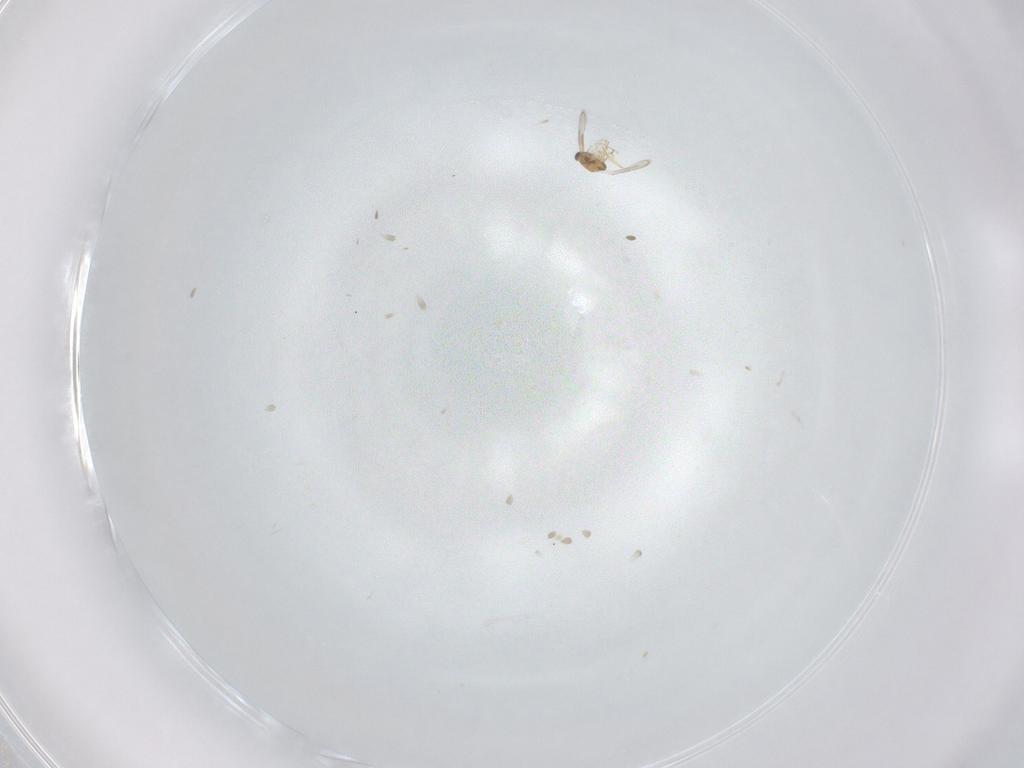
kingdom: Animalia
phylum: Arthropoda
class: Insecta
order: Hymenoptera
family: Aphelinidae
